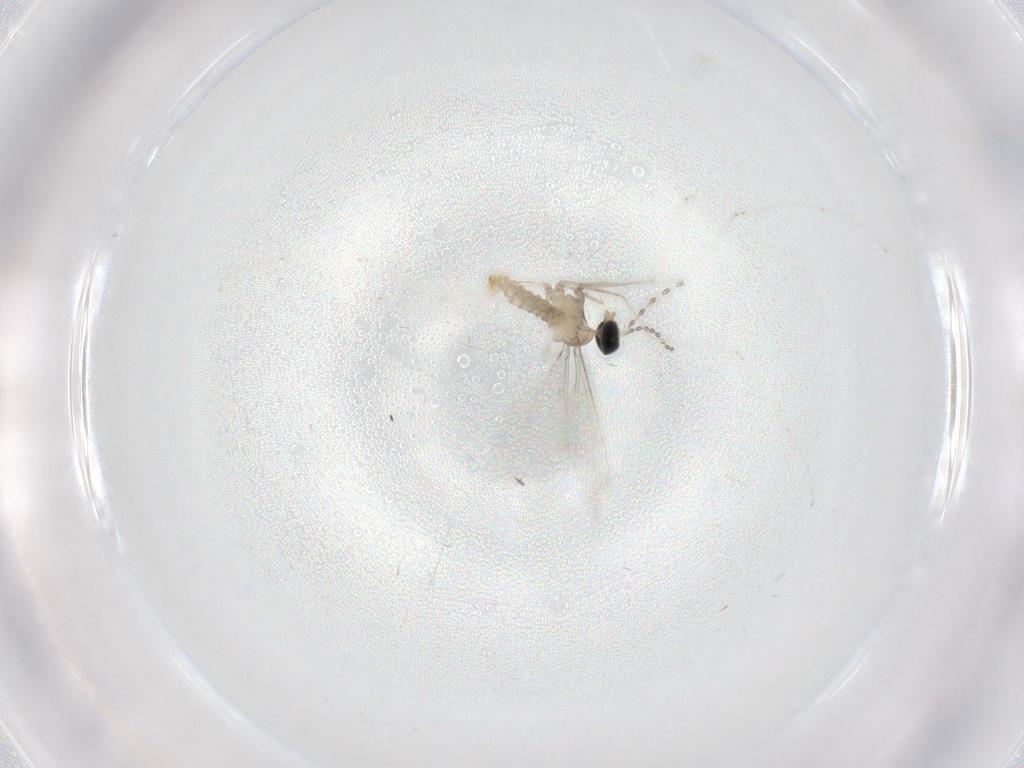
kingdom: Animalia
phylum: Arthropoda
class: Insecta
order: Diptera
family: Cecidomyiidae
